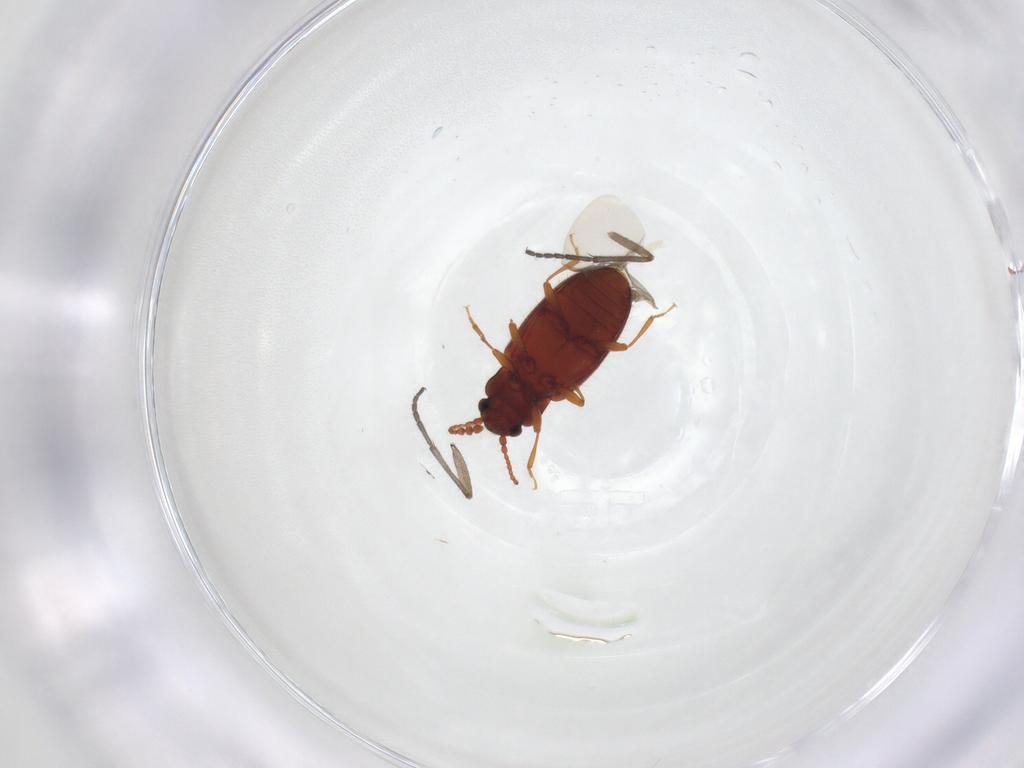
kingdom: Animalia
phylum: Arthropoda
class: Insecta
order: Coleoptera
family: Cryptophagidae
